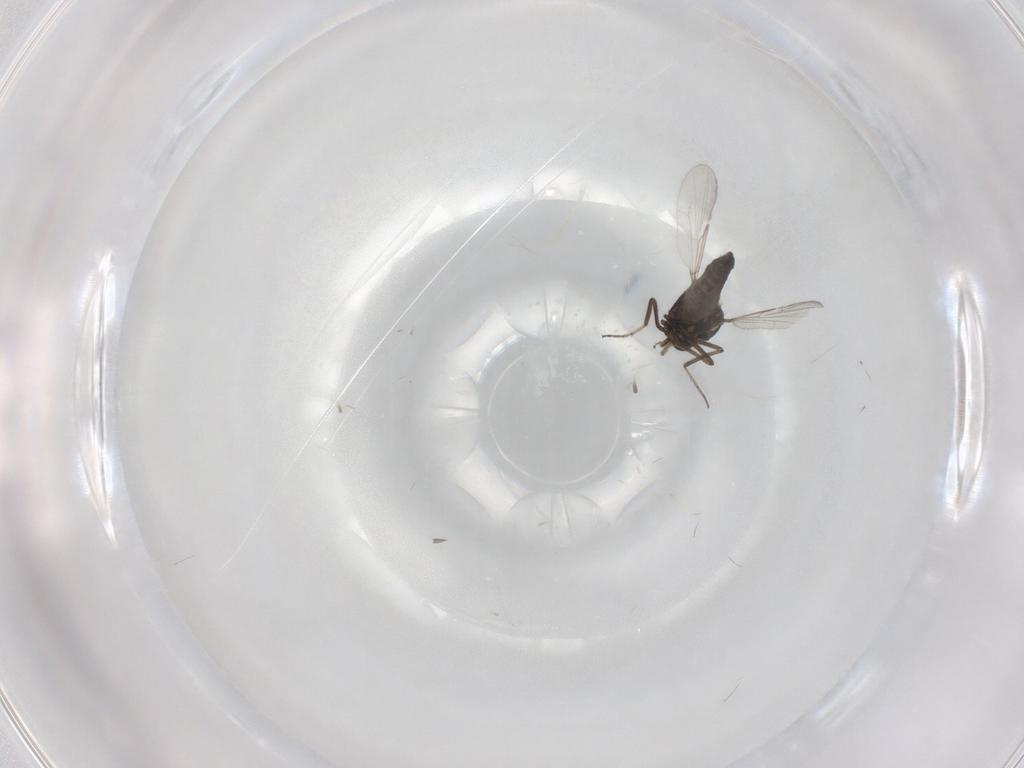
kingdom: Animalia
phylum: Arthropoda
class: Insecta
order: Diptera
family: Ceratopogonidae
